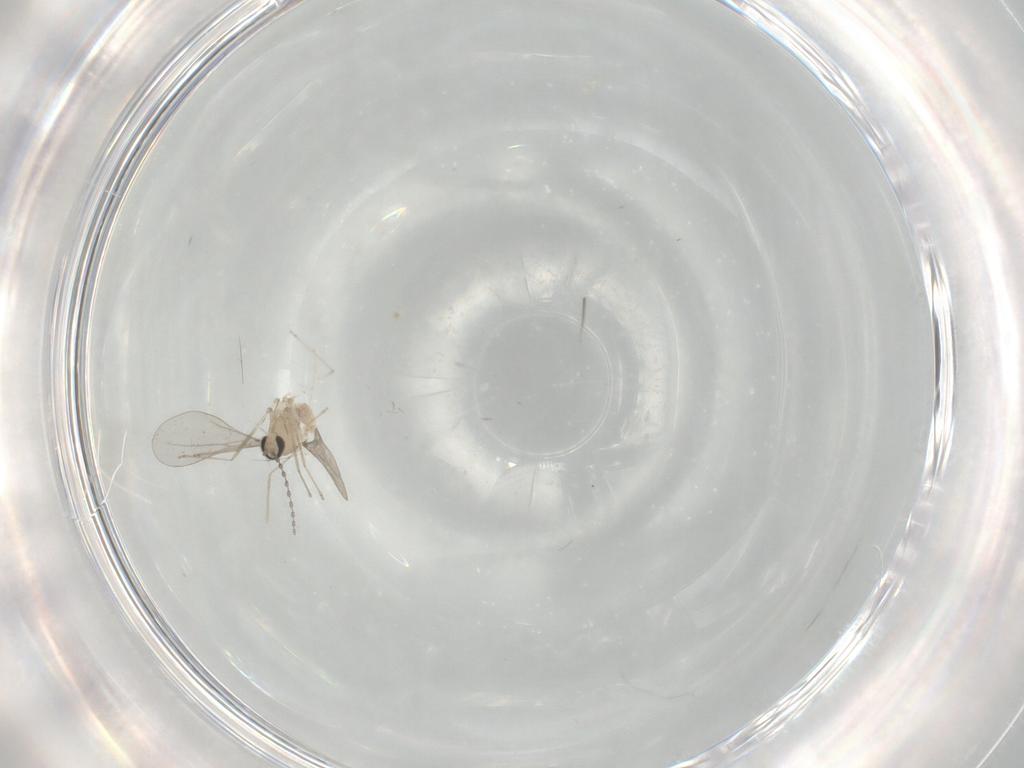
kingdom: Animalia
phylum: Arthropoda
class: Insecta
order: Diptera
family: Cecidomyiidae
